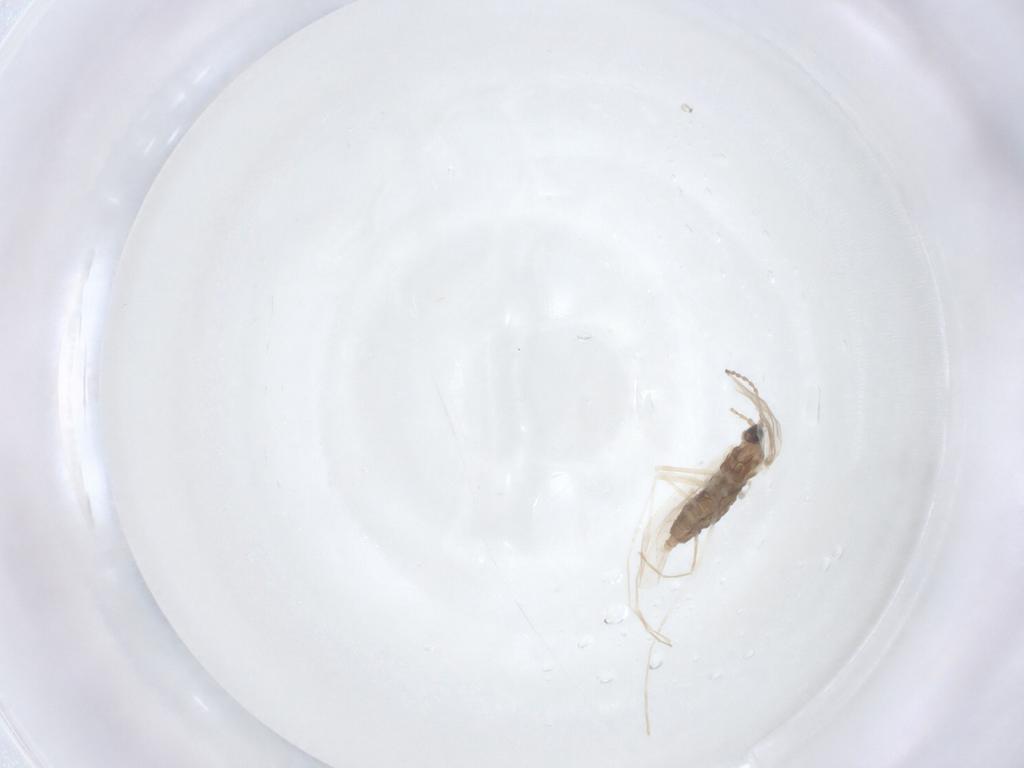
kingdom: Animalia
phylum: Arthropoda
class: Insecta
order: Diptera
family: Cecidomyiidae
